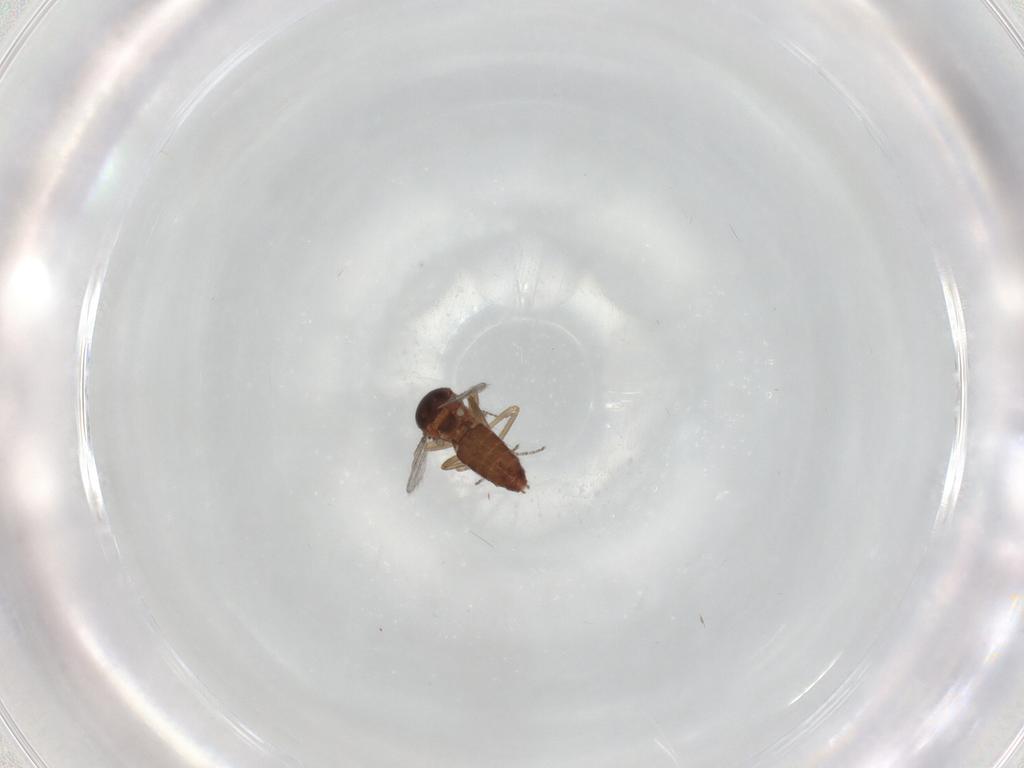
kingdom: Animalia
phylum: Arthropoda
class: Insecta
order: Diptera
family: Ceratopogonidae
